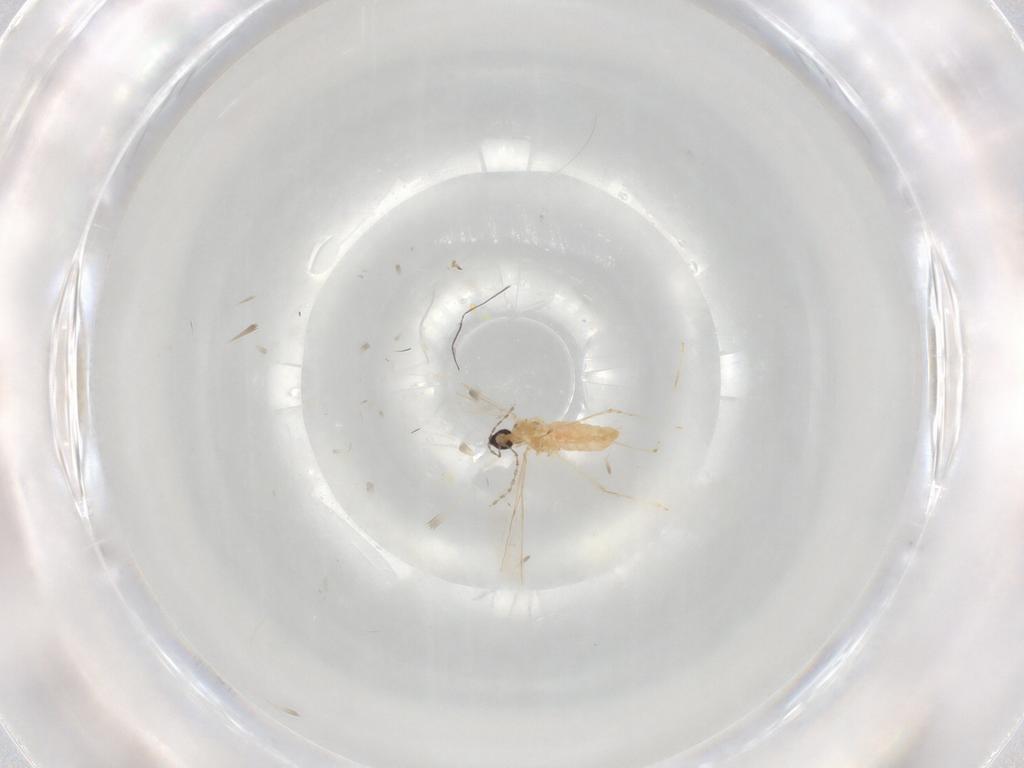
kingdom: Animalia
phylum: Arthropoda
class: Insecta
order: Diptera
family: Cecidomyiidae
